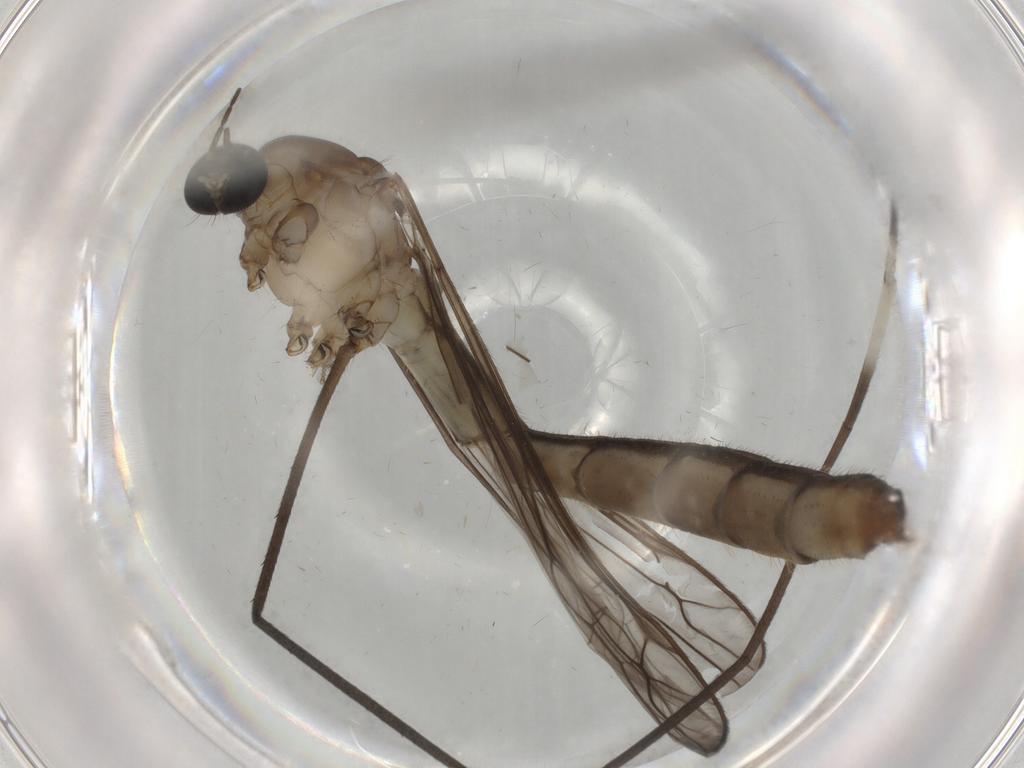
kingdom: Animalia
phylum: Arthropoda
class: Insecta
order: Diptera
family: Limoniidae
